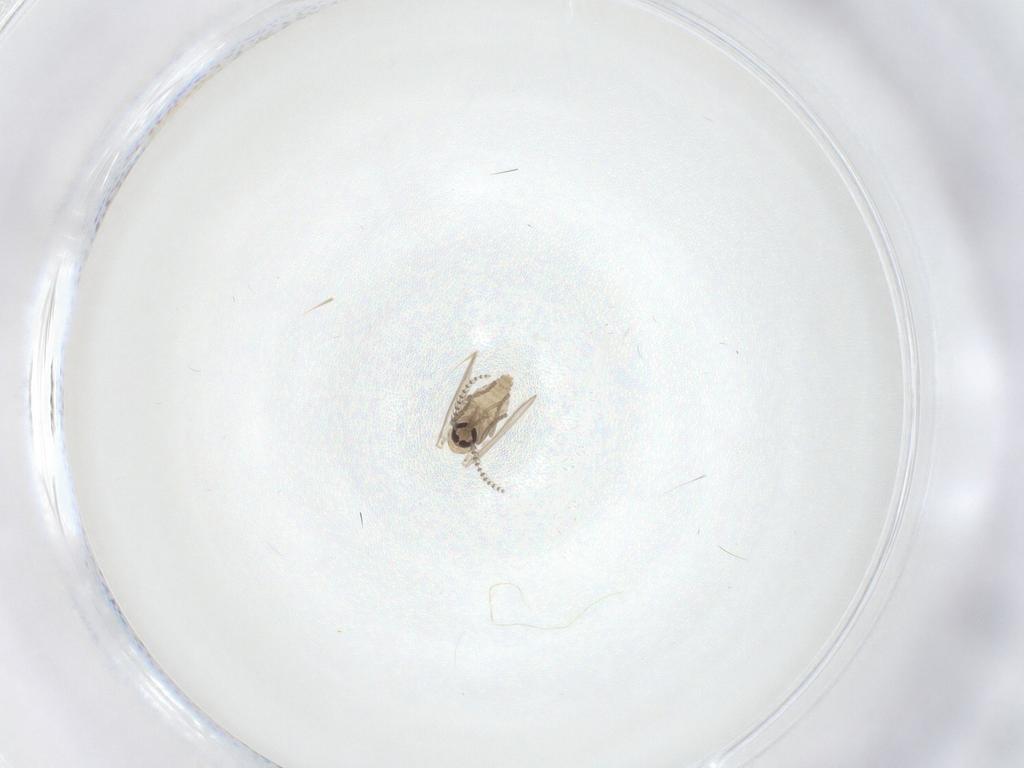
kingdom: Animalia
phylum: Arthropoda
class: Insecta
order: Diptera
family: Psychodidae
